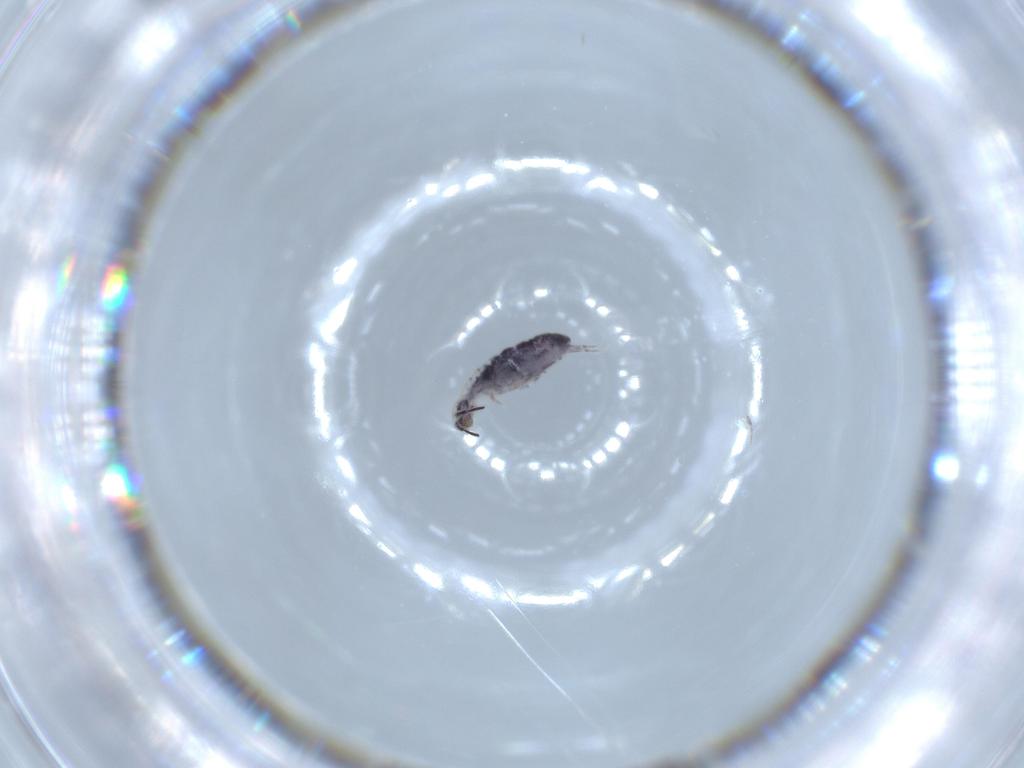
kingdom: Animalia
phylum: Arthropoda
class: Collembola
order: Entomobryomorpha
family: Isotomidae
